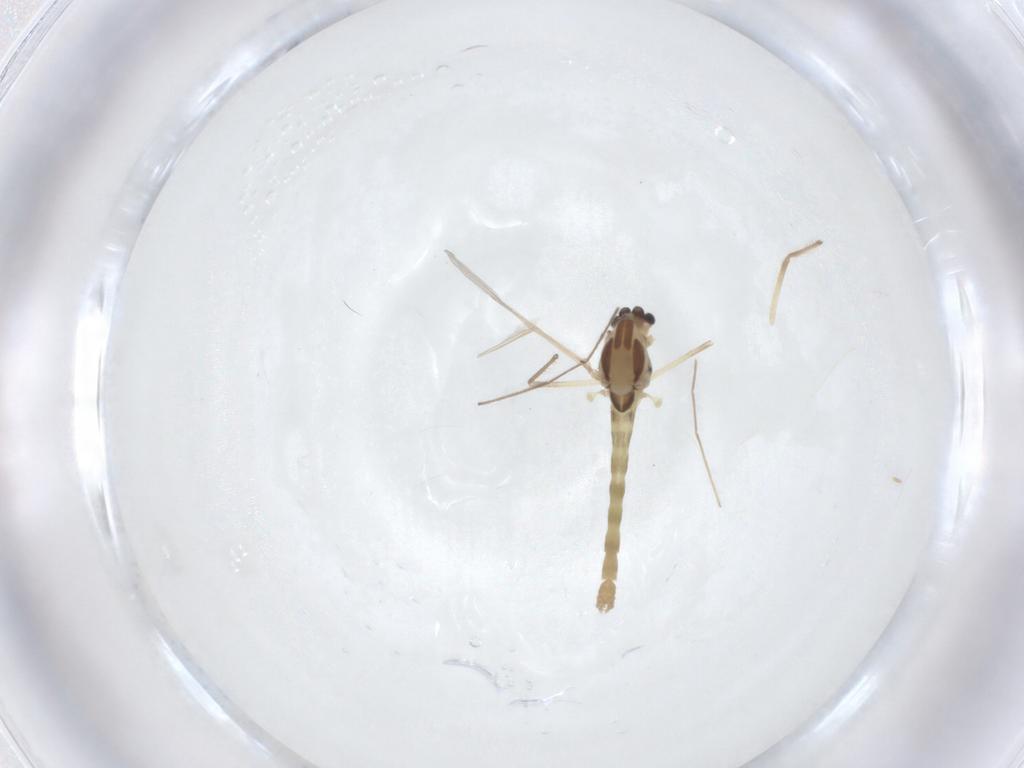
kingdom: Animalia
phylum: Arthropoda
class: Insecta
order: Diptera
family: Chironomidae
